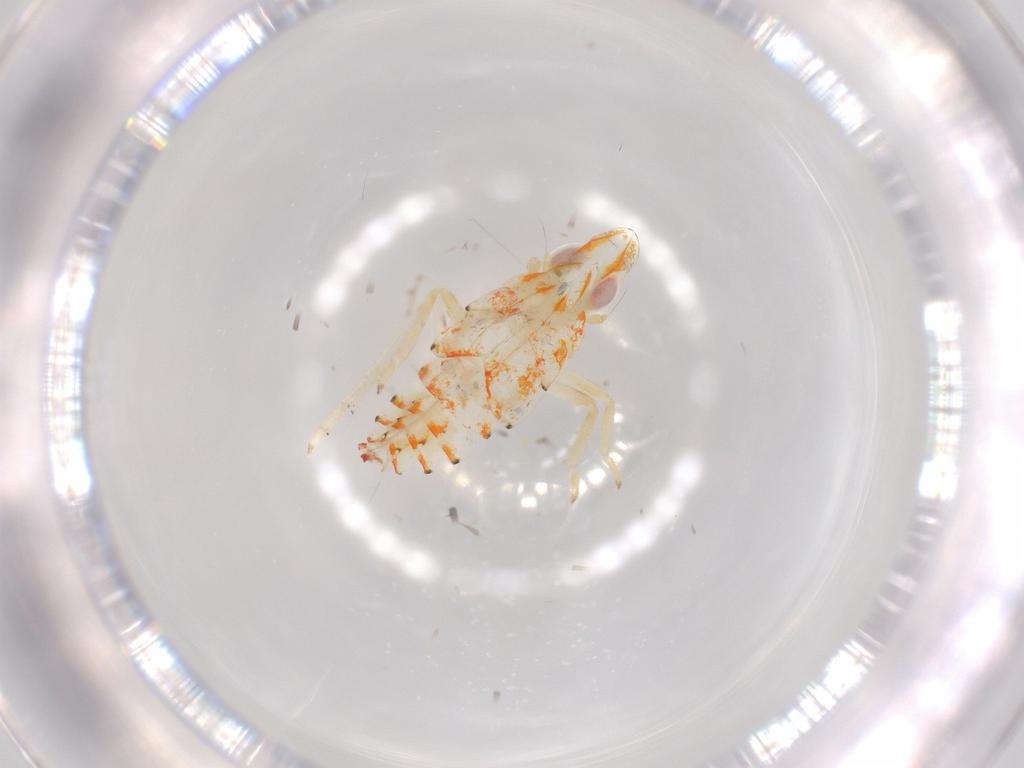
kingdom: Animalia
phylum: Arthropoda
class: Insecta
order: Hemiptera
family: Tropiduchidae
